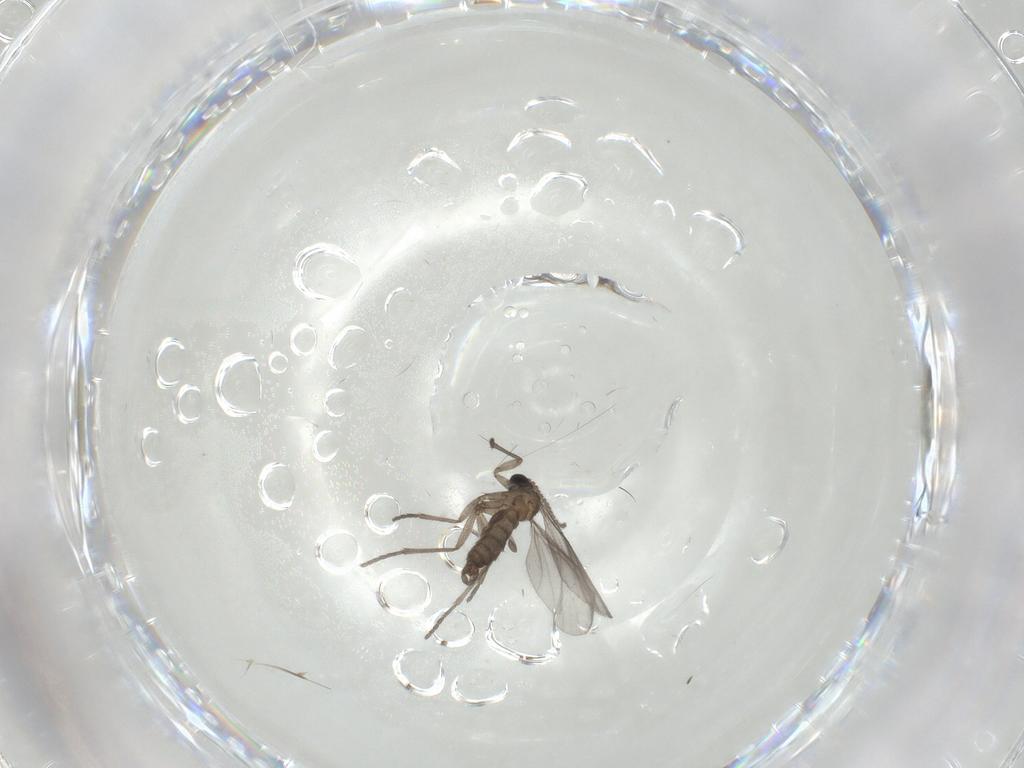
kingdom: Animalia
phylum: Arthropoda
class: Insecta
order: Diptera
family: Sciaridae
